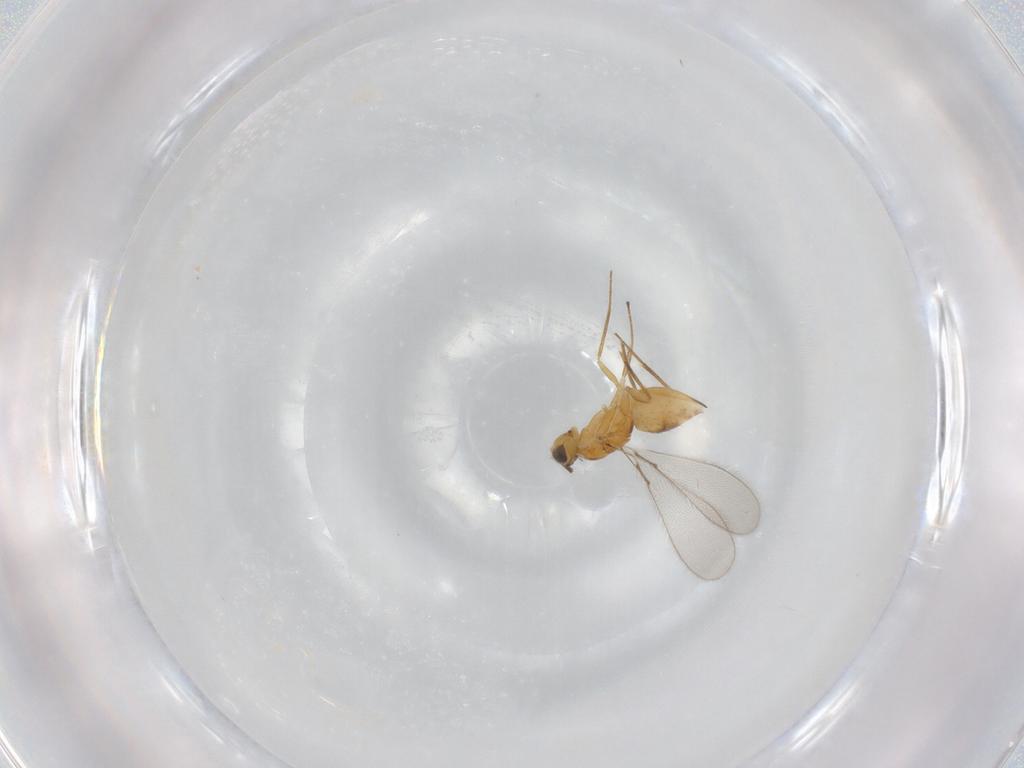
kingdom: Animalia
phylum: Arthropoda
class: Insecta
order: Hymenoptera
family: Mymaridae
